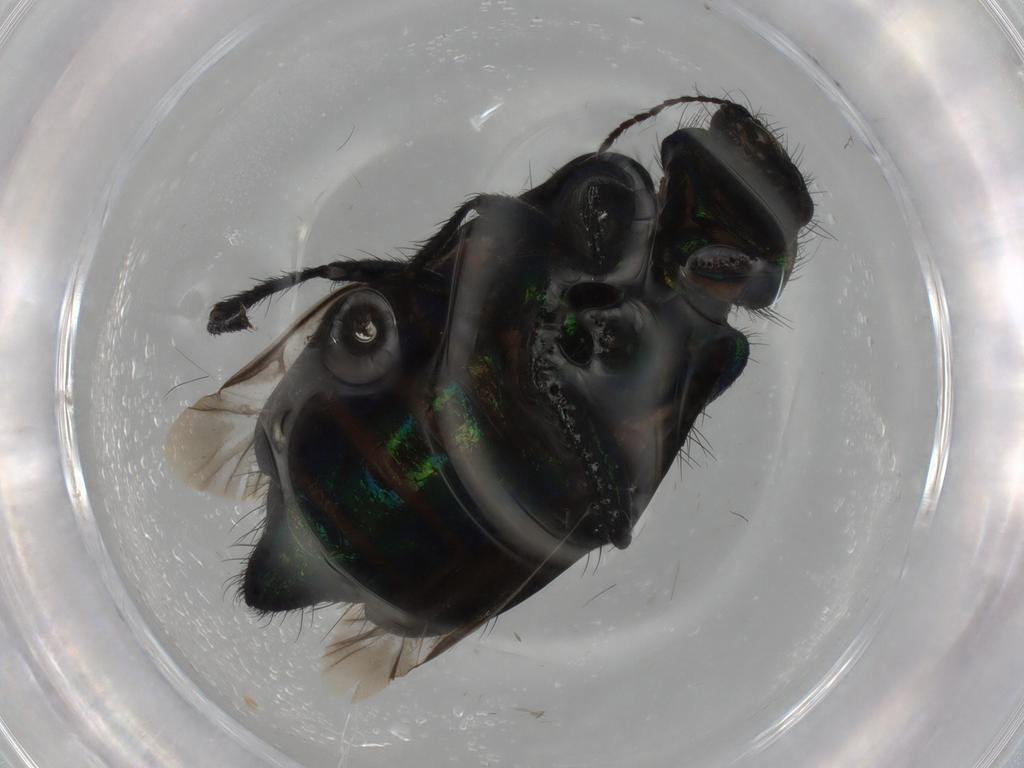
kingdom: Animalia
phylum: Arthropoda
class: Insecta
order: Coleoptera
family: Melyridae
